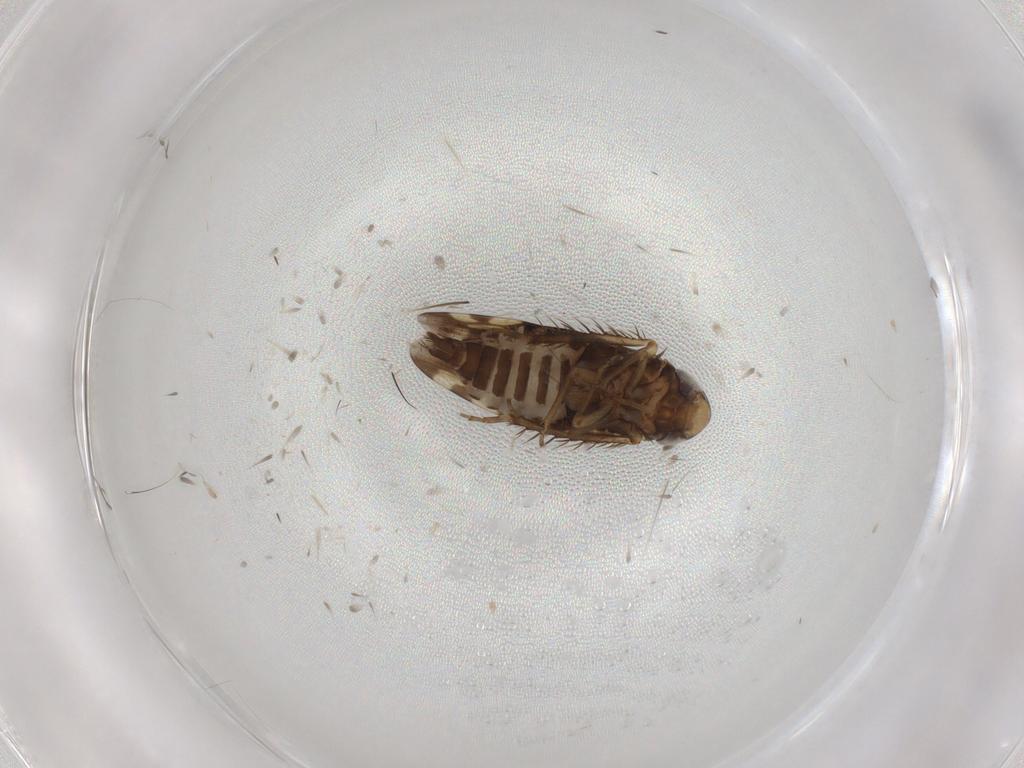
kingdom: Animalia
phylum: Arthropoda
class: Insecta
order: Hemiptera
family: Cicadellidae
